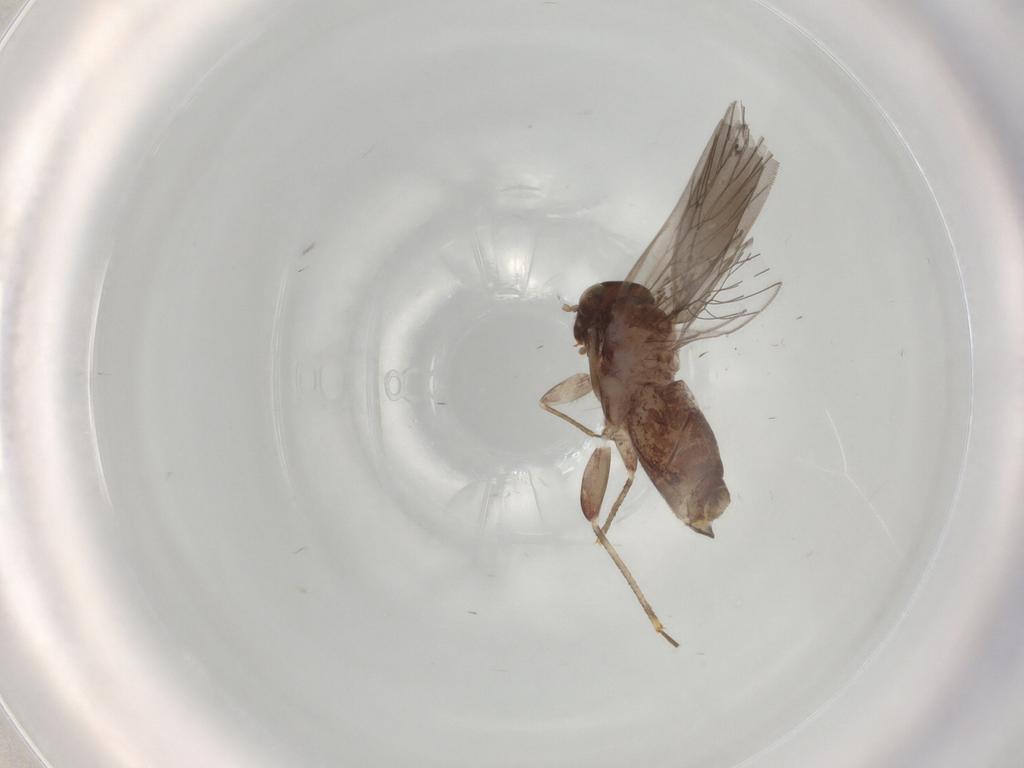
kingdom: Animalia
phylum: Arthropoda
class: Insecta
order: Psocodea
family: Lepidopsocidae
